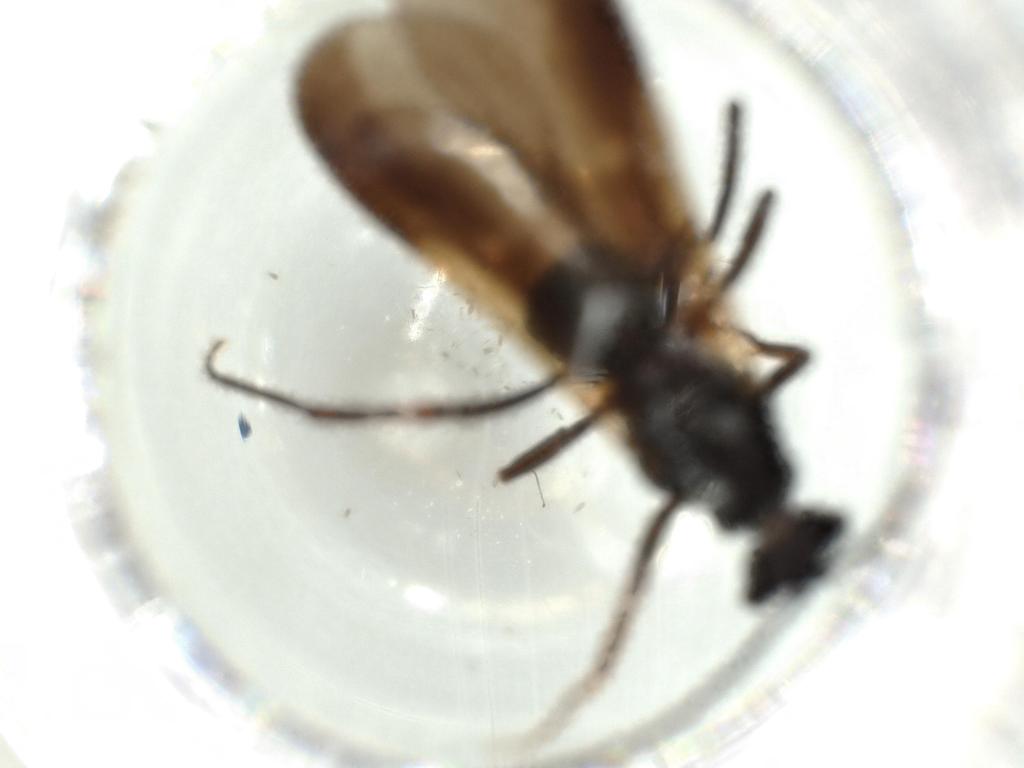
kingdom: Animalia
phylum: Arthropoda
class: Insecta
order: Hymenoptera
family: Formicidae
